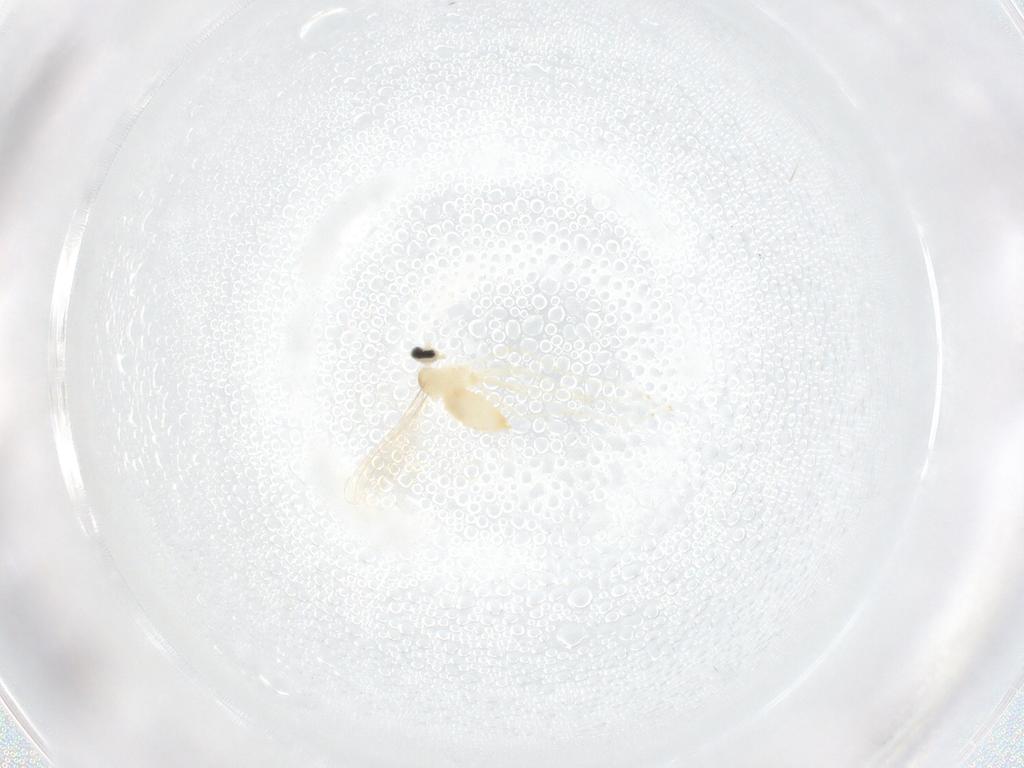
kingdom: Animalia
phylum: Arthropoda
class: Insecta
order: Diptera
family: Cecidomyiidae
